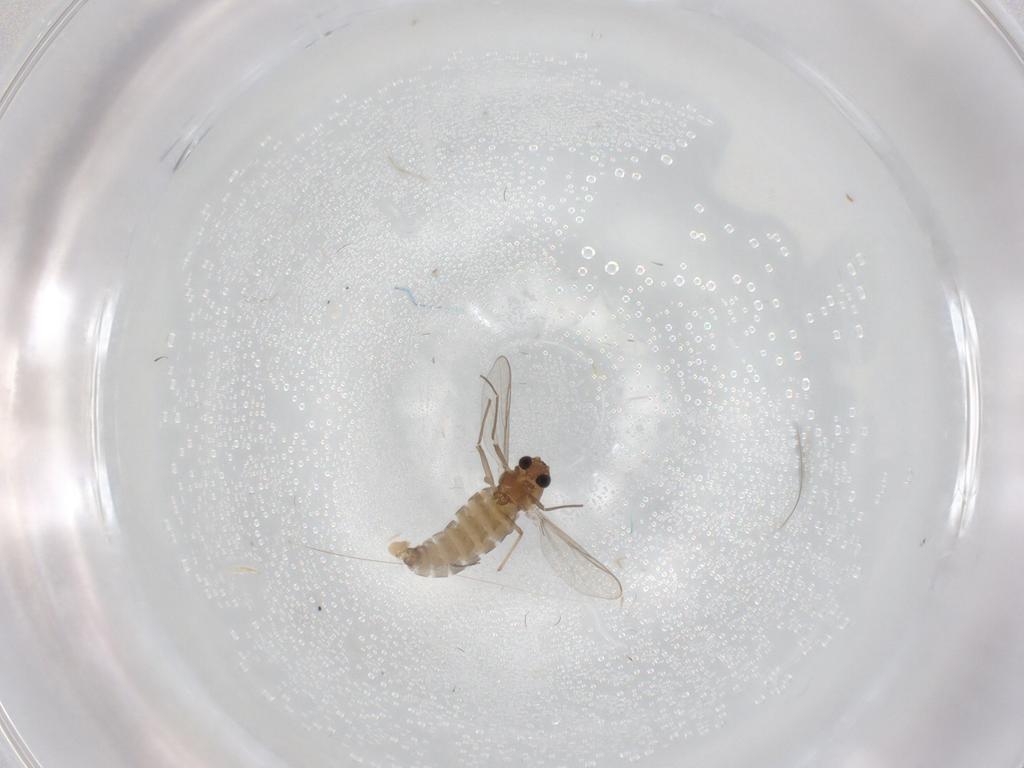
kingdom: Animalia
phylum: Arthropoda
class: Insecta
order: Diptera
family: Chironomidae
